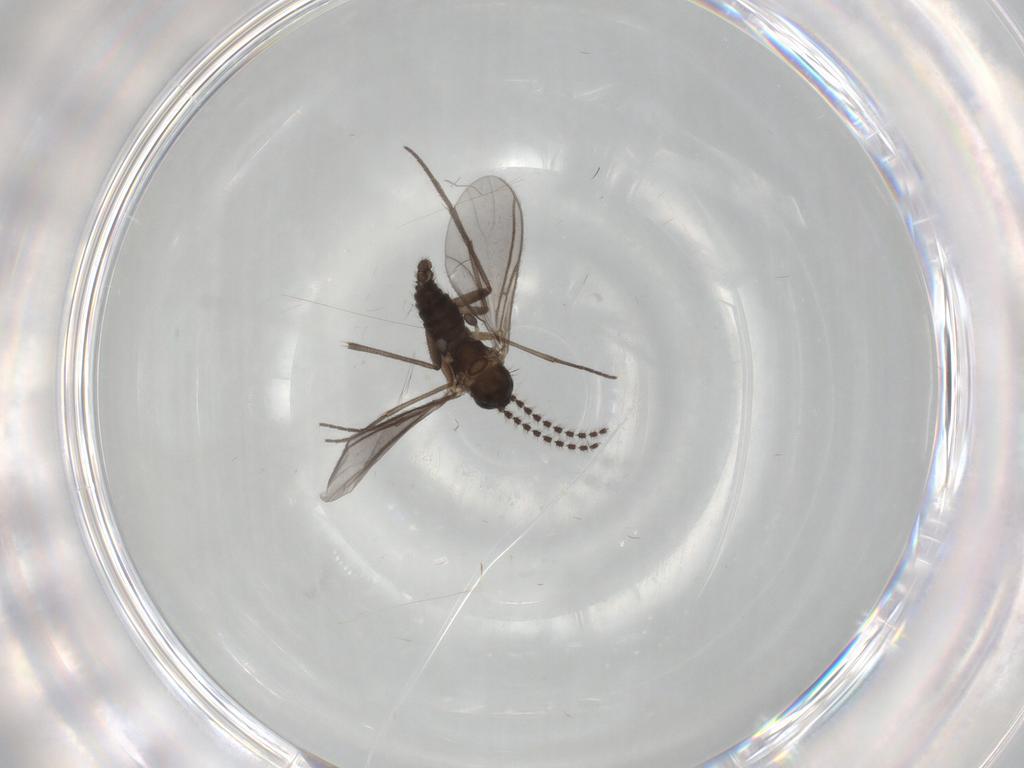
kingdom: Animalia
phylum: Arthropoda
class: Insecta
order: Diptera
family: Sciaridae
